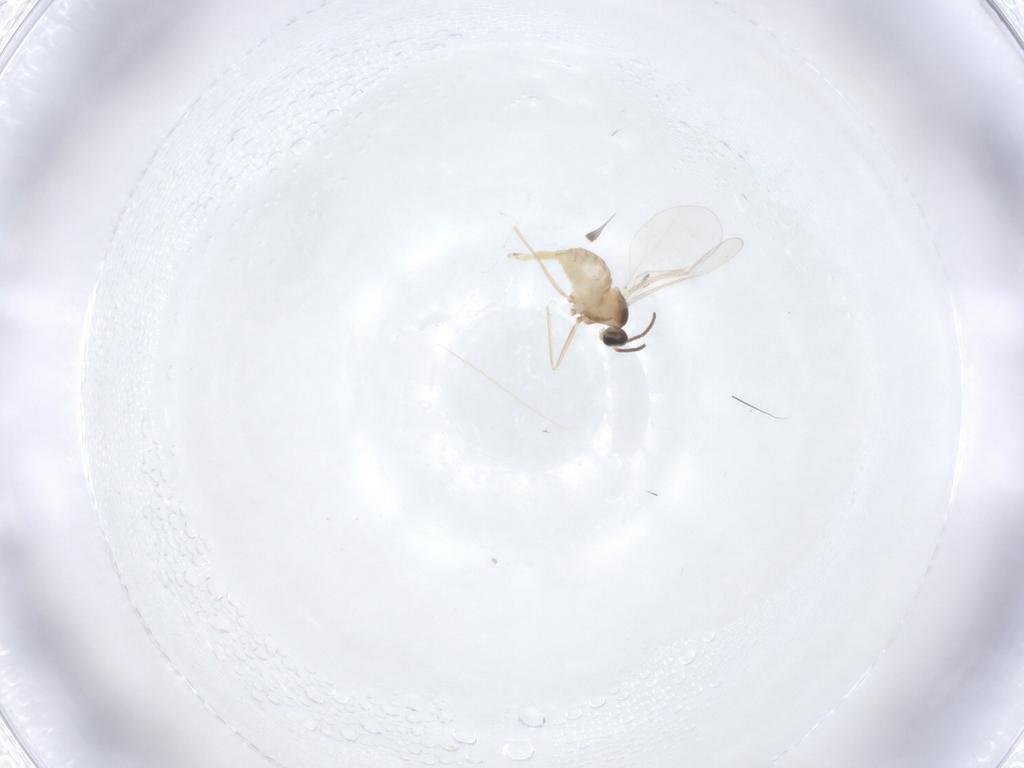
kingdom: Animalia
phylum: Arthropoda
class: Insecta
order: Diptera
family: Cecidomyiidae
